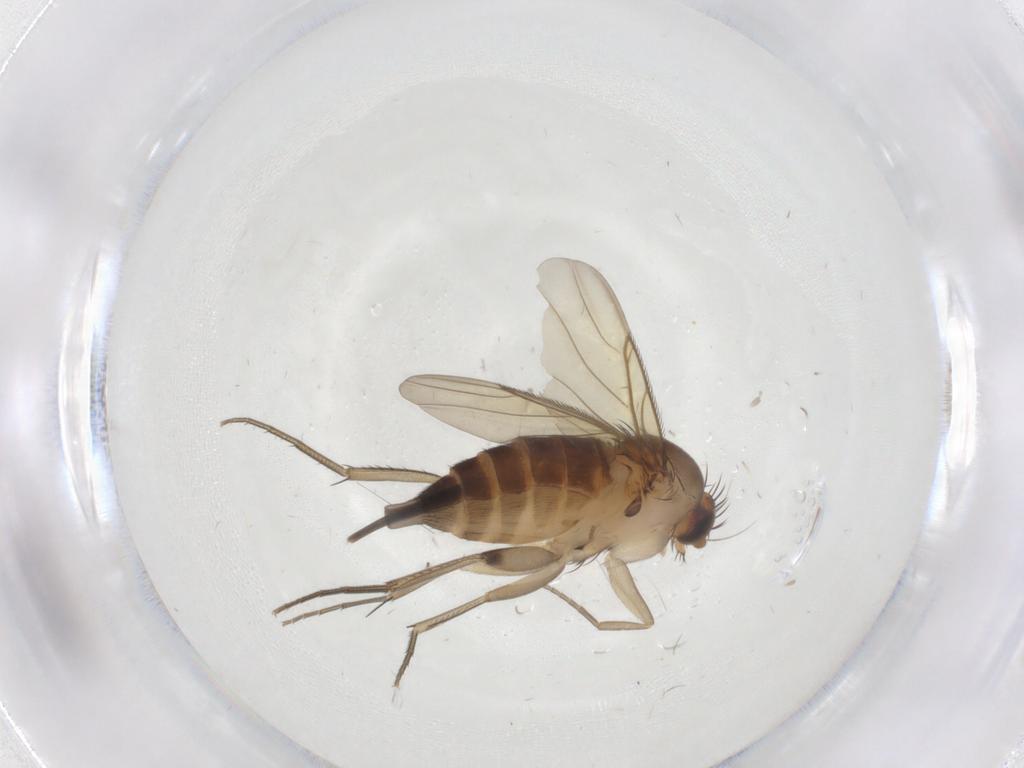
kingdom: Animalia
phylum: Arthropoda
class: Insecta
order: Diptera
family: Cecidomyiidae
